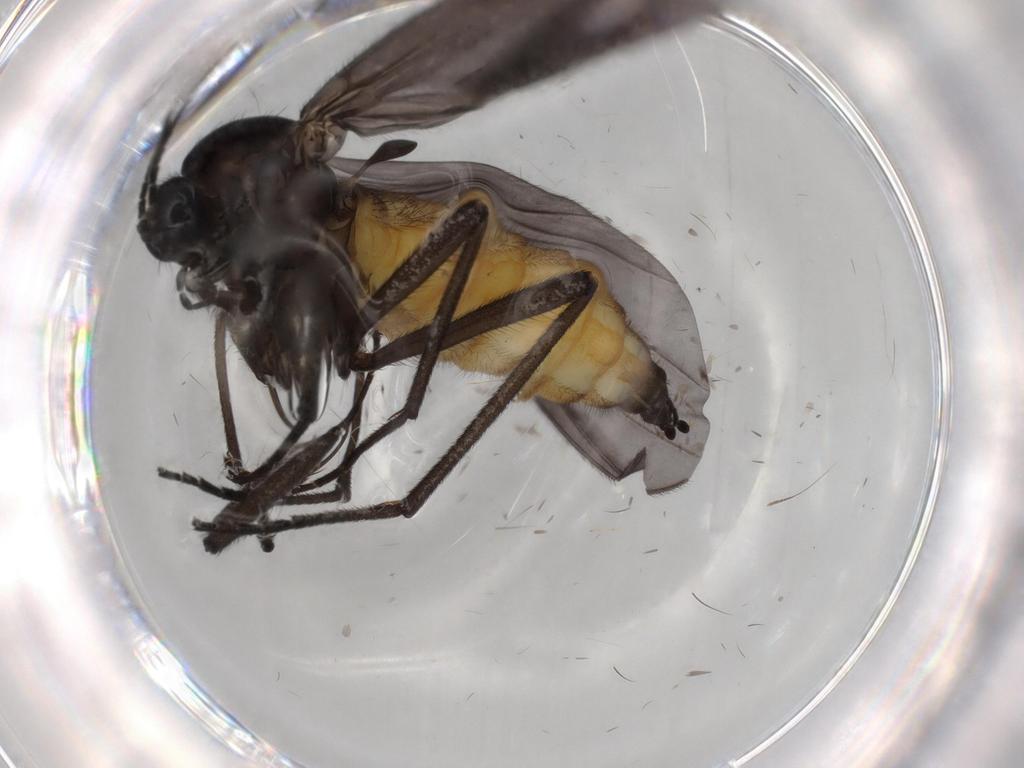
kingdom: Animalia
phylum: Arthropoda
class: Insecta
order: Diptera
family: Cecidomyiidae
